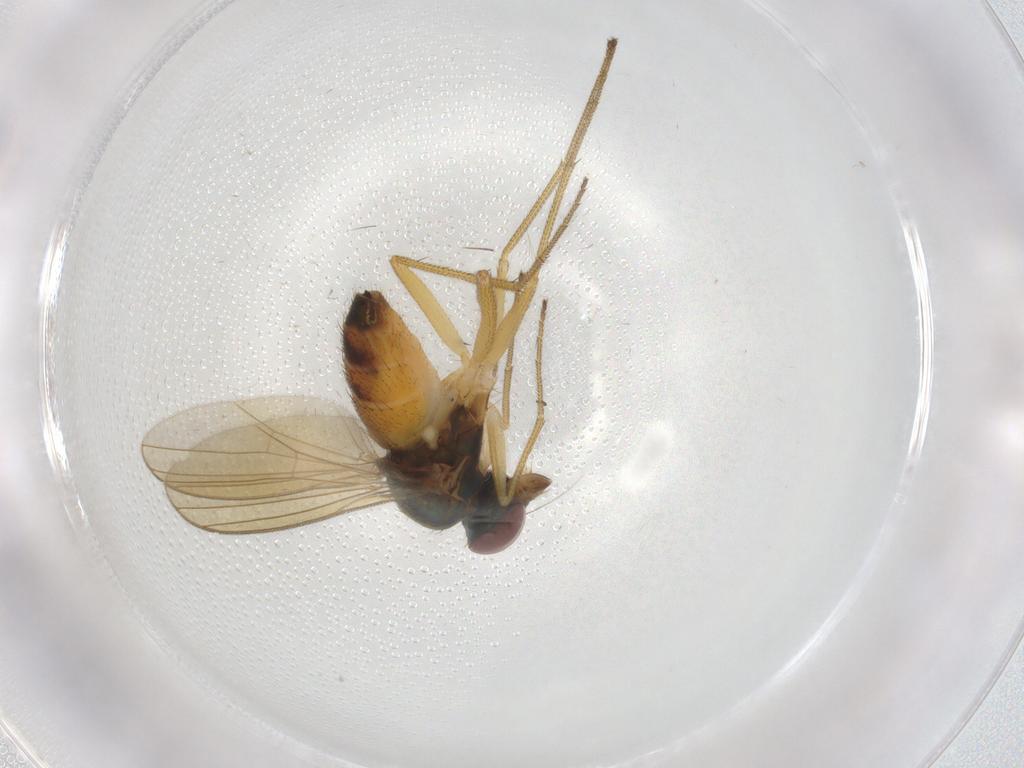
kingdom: Animalia
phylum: Arthropoda
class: Insecta
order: Diptera
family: Dolichopodidae
